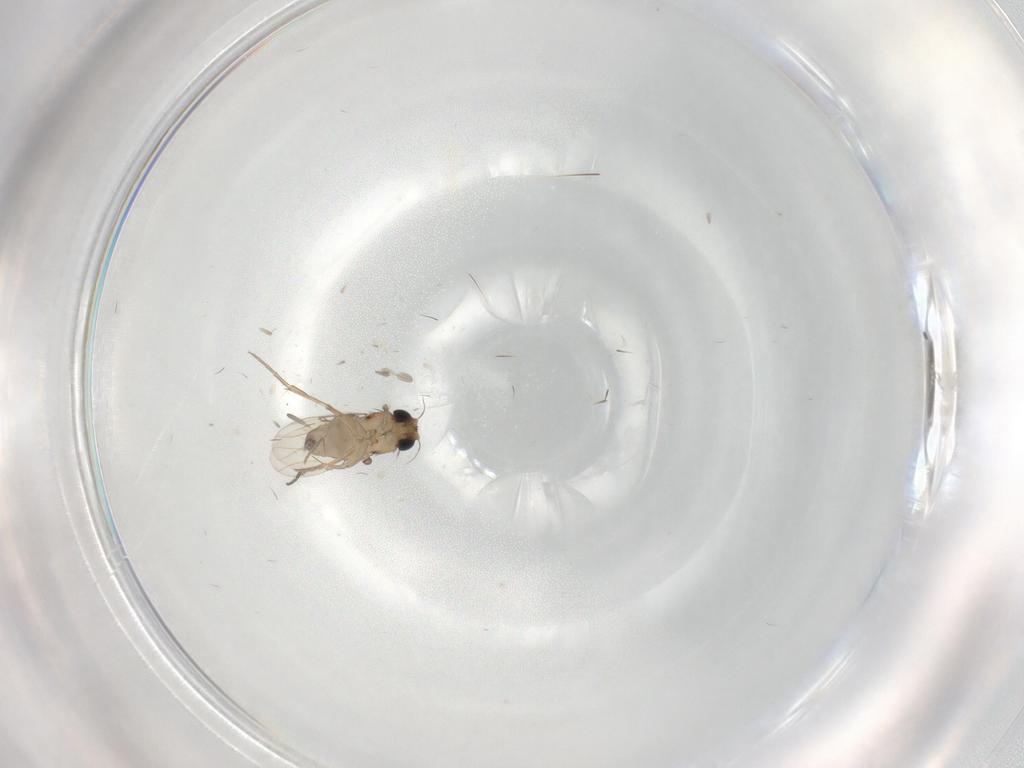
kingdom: Animalia
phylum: Arthropoda
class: Insecta
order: Diptera
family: Phoridae
